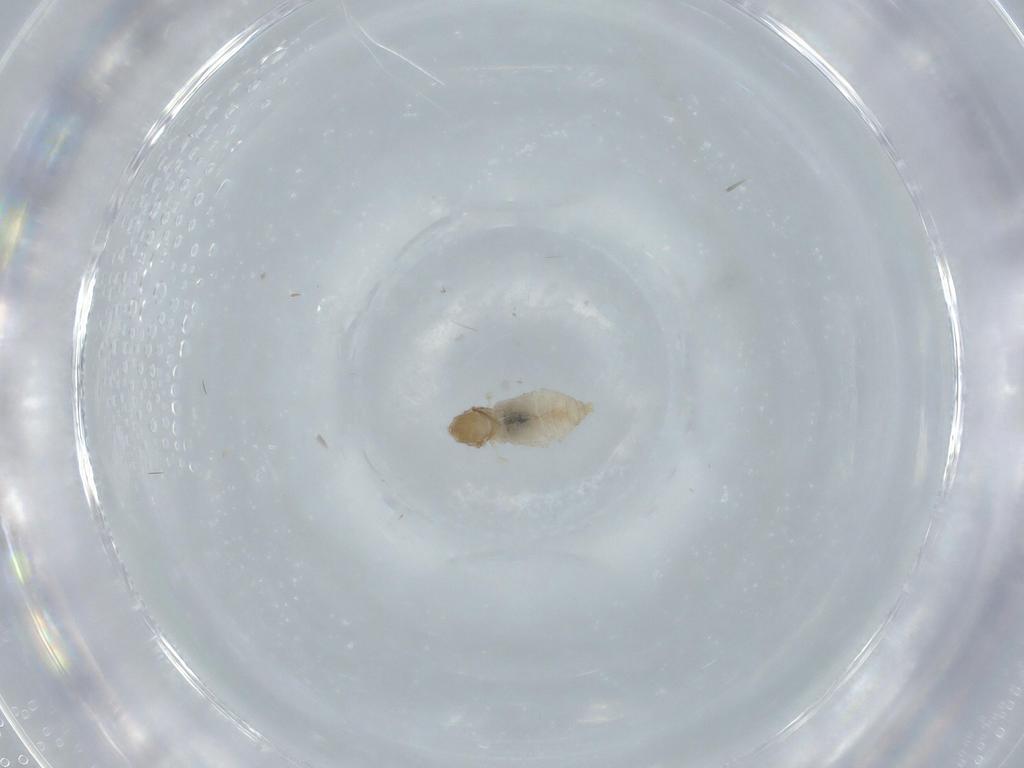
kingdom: Animalia
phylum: Arthropoda
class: Insecta
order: Diptera
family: Cecidomyiidae
